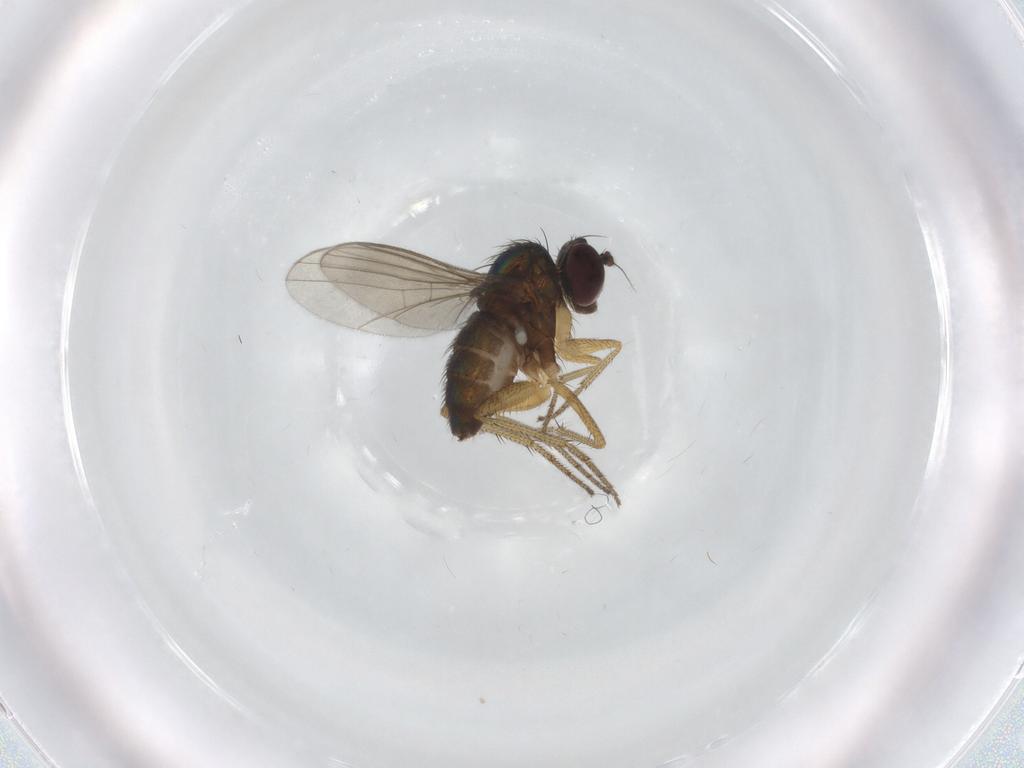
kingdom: Animalia
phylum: Arthropoda
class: Insecta
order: Diptera
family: Dolichopodidae
